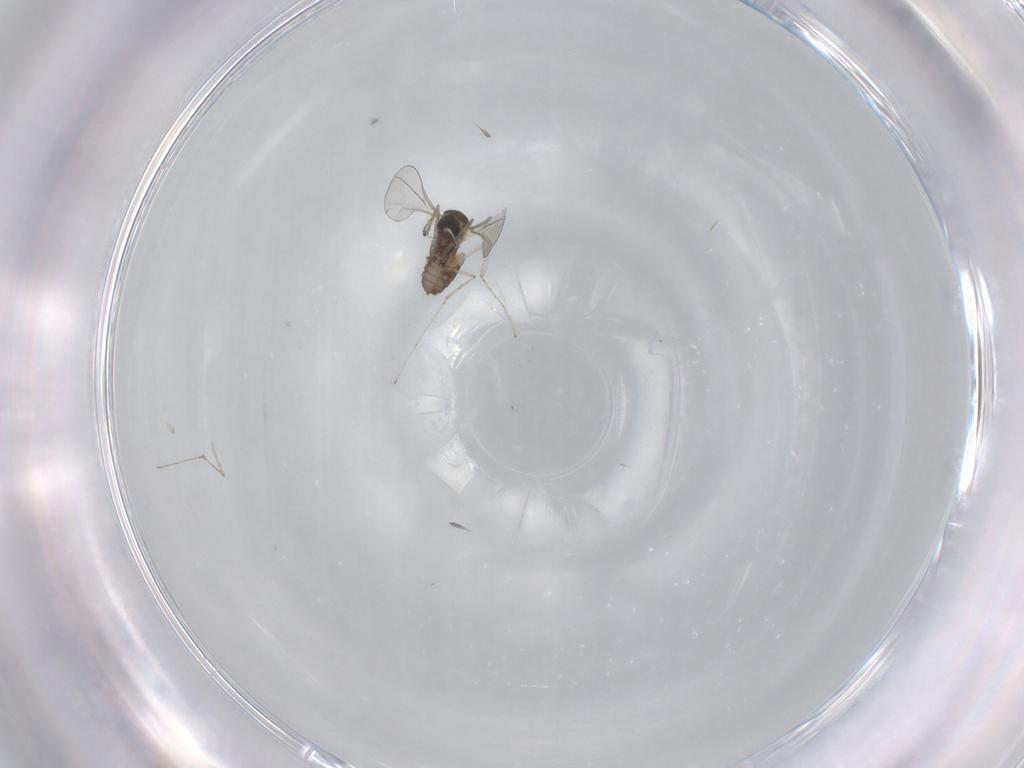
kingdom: Animalia
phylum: Arthropoda
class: Insecta
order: Diptera
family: Cecidomyiidae
